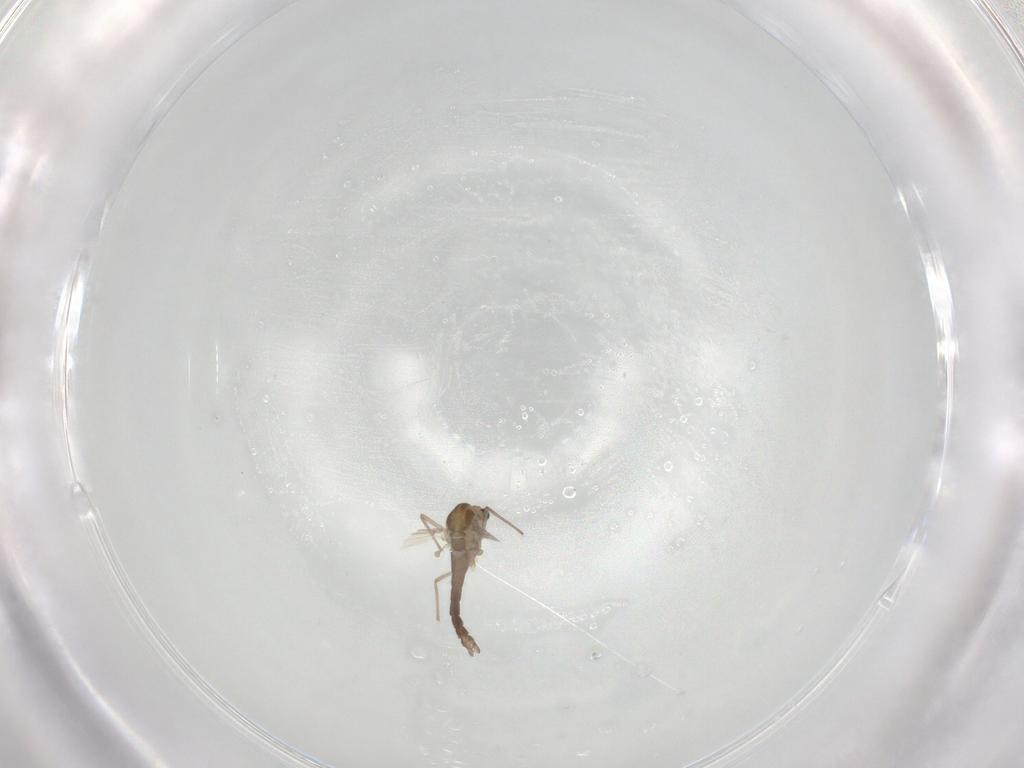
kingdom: Animalia
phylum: Arthropoda
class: Insecta
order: Diptera
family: Chironomidae
